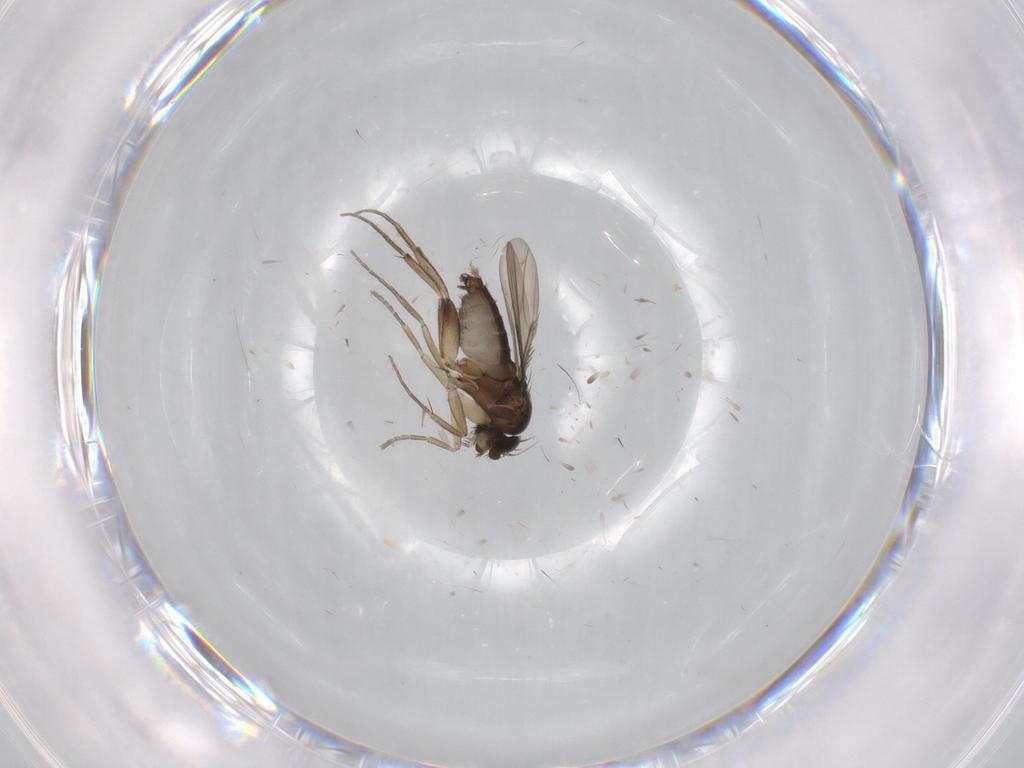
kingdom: Animalia
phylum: Arthropoda
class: Insecta
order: Diptera
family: Phoridae
